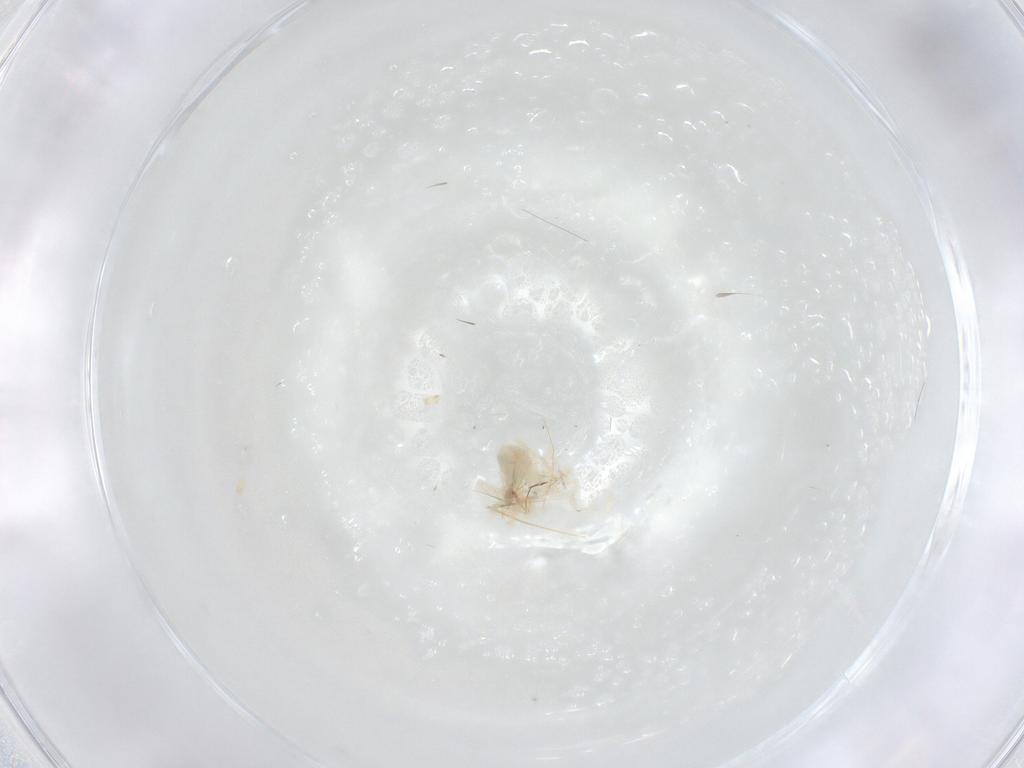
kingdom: Animalia
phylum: Arthropoda
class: Arachnida
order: Trombidiformes
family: Anystidae
